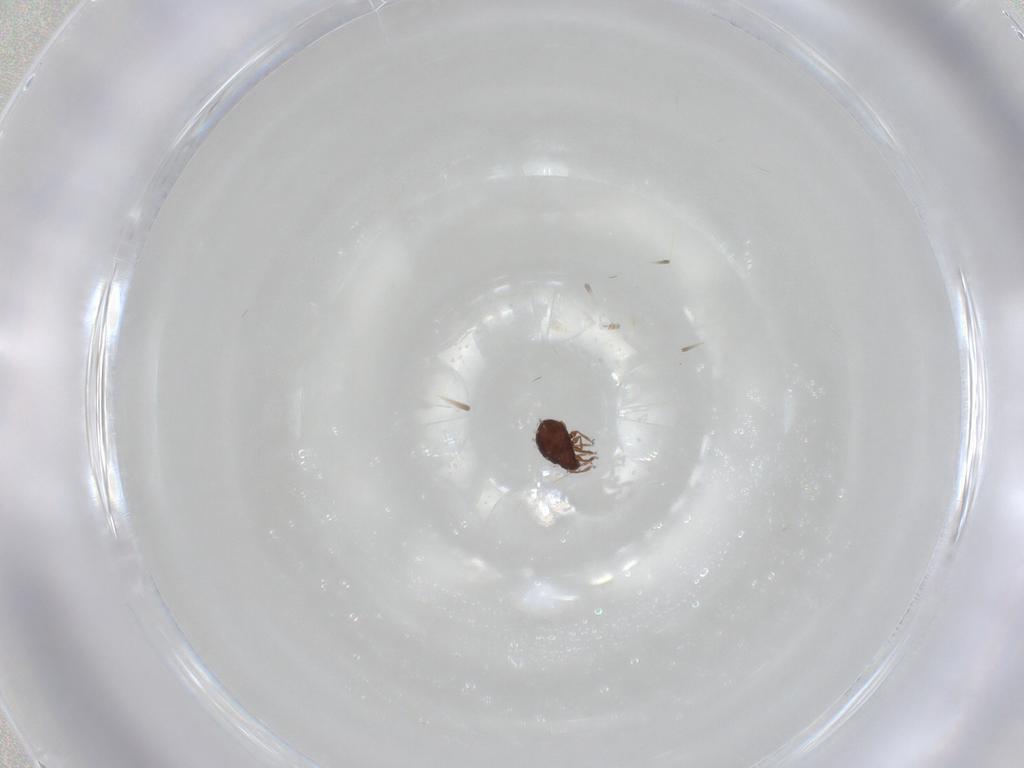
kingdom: Animalia
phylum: Arthropoda
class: Arachnida
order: Sarcoptiformes
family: Scheloribatidae
